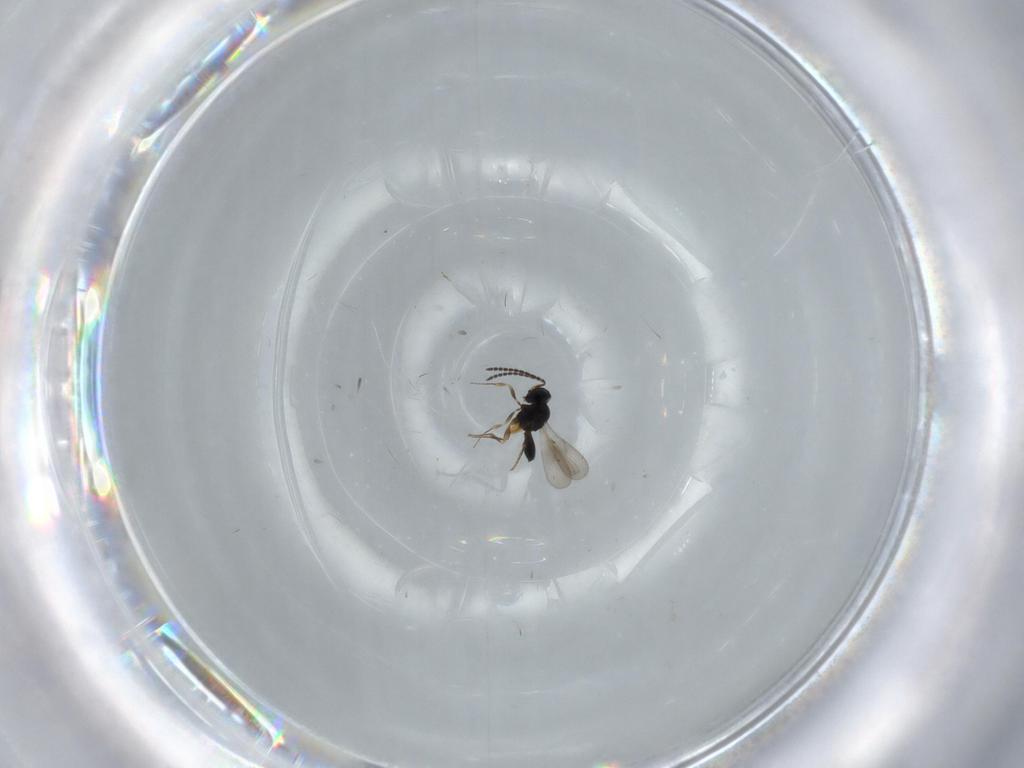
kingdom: Animalia
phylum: Arthropoda
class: Insecta
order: Hymenoptera
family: Scelionidae
